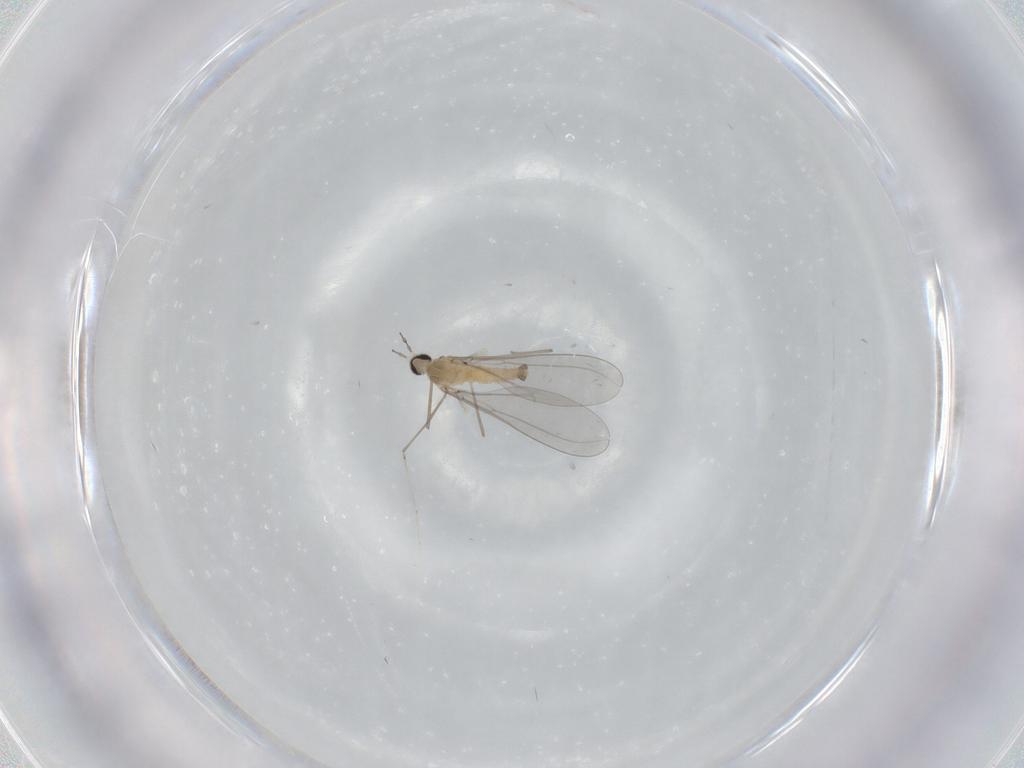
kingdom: Animalia
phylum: Arthropoda
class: Insecta
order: Diptera
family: Cecidomyiidae
